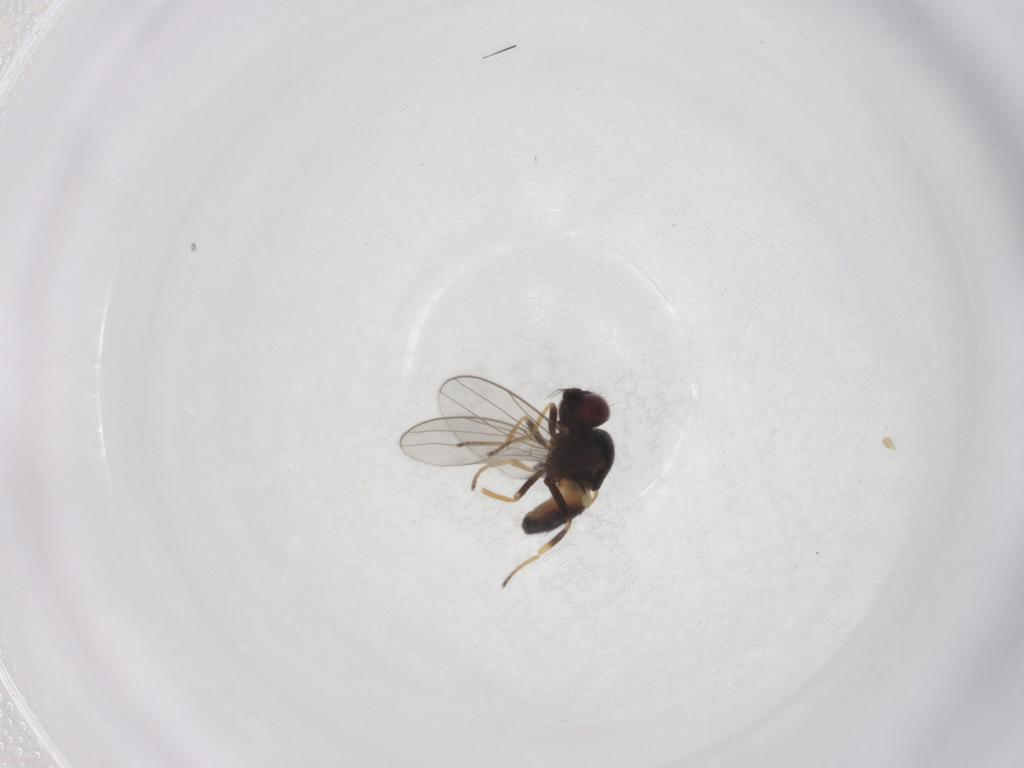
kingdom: Animalia
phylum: Arthropoda
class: Insecta
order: Diptera
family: Chloropidae
